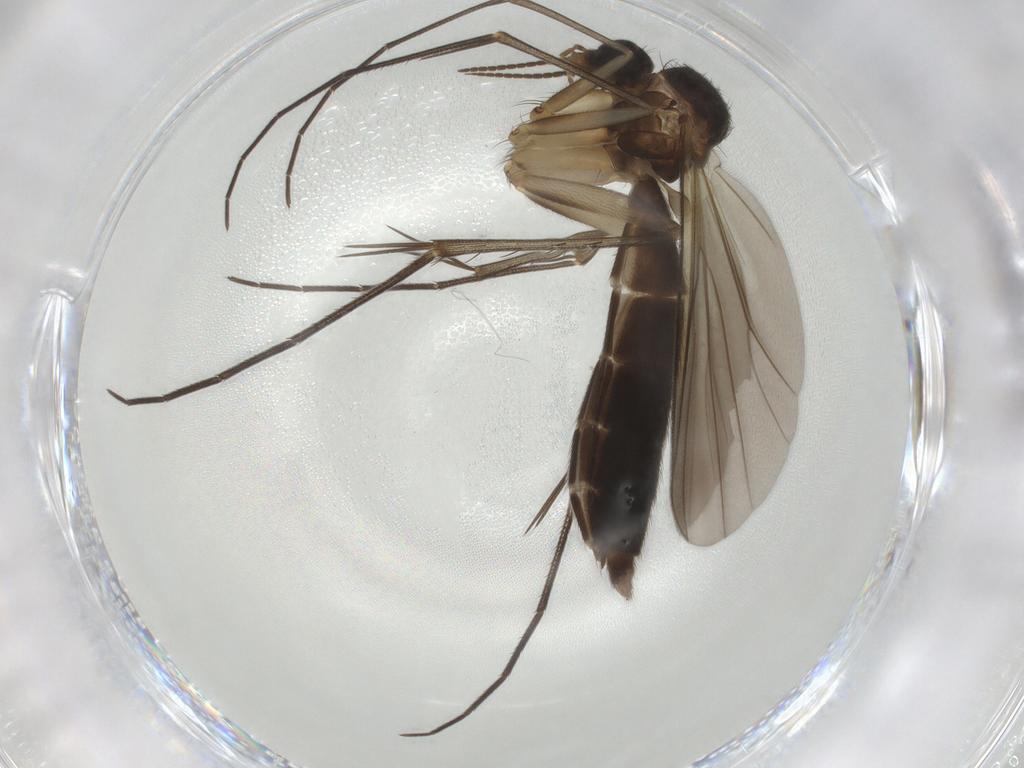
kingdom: Animalia
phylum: Arthropoda
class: Insecta
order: Diptera
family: Mycetophilidae
